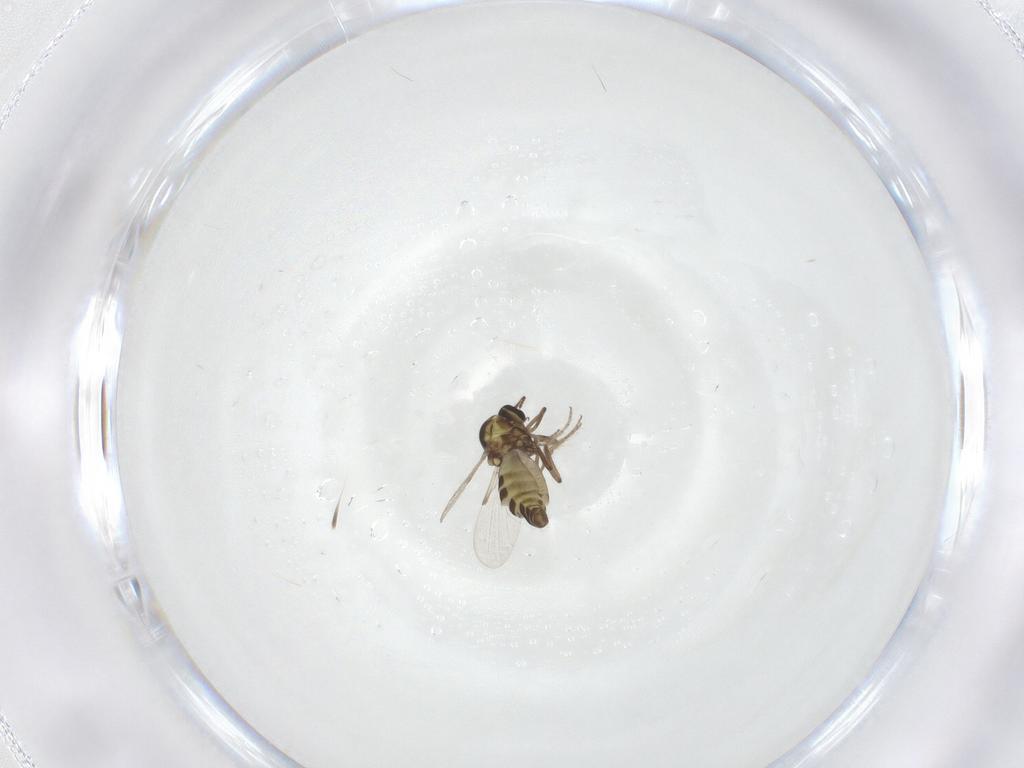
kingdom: Animalia
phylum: Arthropoda
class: Insecta
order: Diptera
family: Ceratopogonidae
